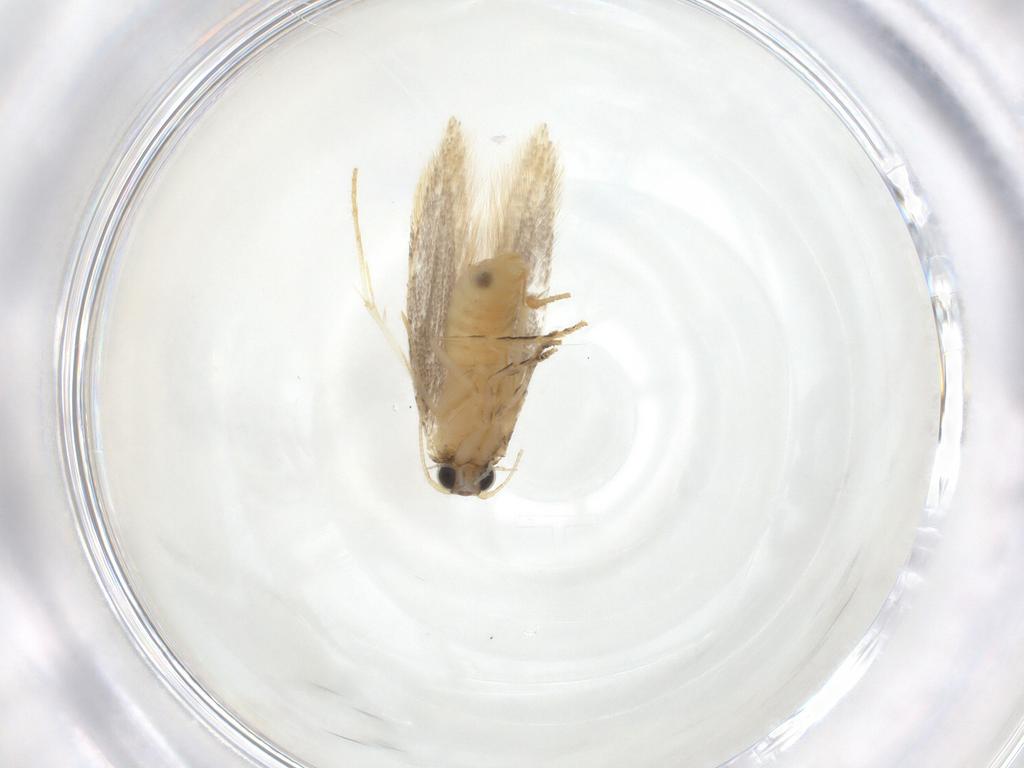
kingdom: Animalia
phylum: Arthropoda
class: Insecta
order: Lepidoptera
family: Tineidae
